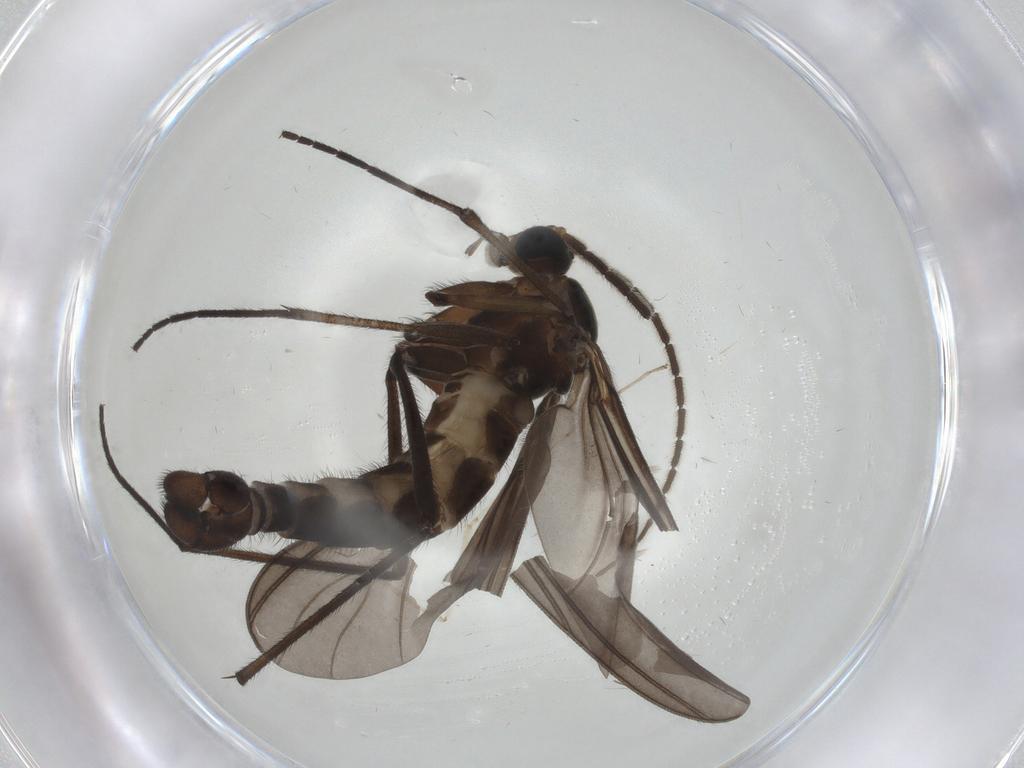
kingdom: Animalia
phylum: Arthropoda
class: Insecta
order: Diptera
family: Sciaridae
